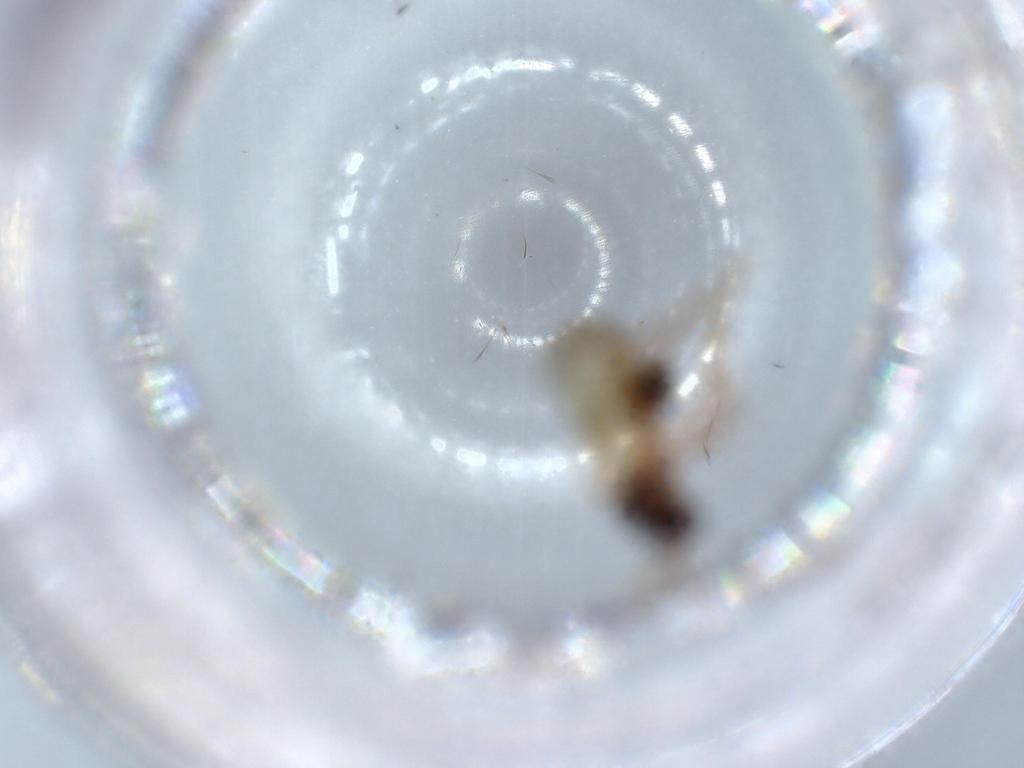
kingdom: Animalia
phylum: Arthropoda
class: Insecta
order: Hymenoptera
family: Diapriidae
